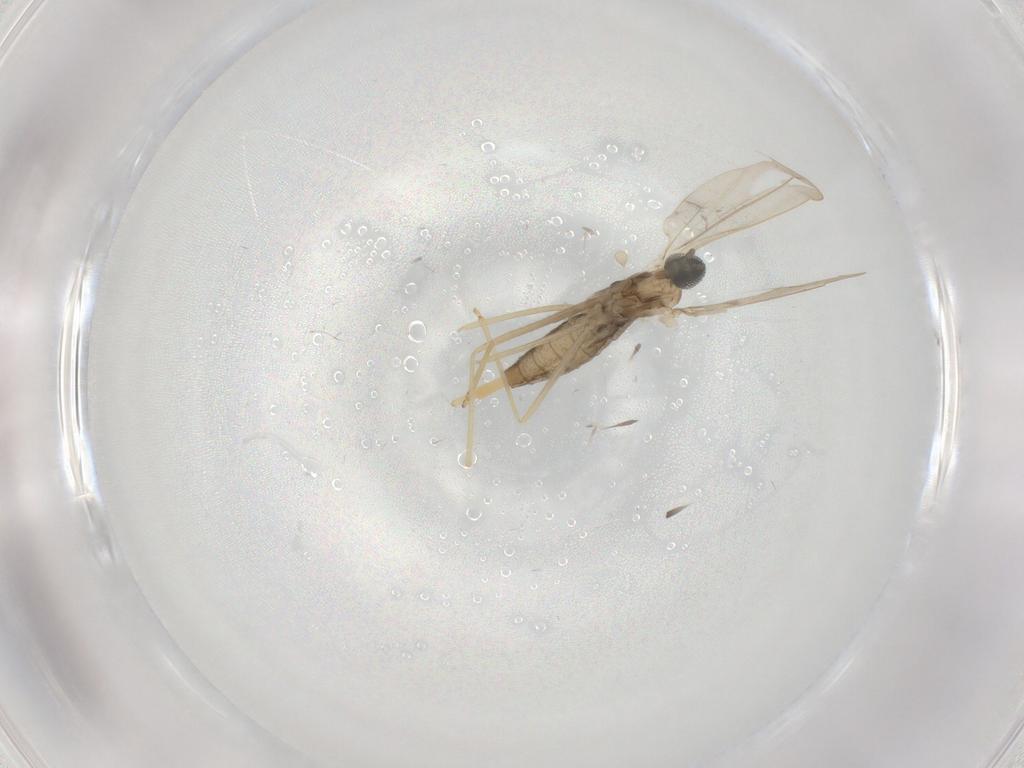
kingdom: Animalia
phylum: Arthropoda
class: Insecta
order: Diptera
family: Cecidomyiidae
